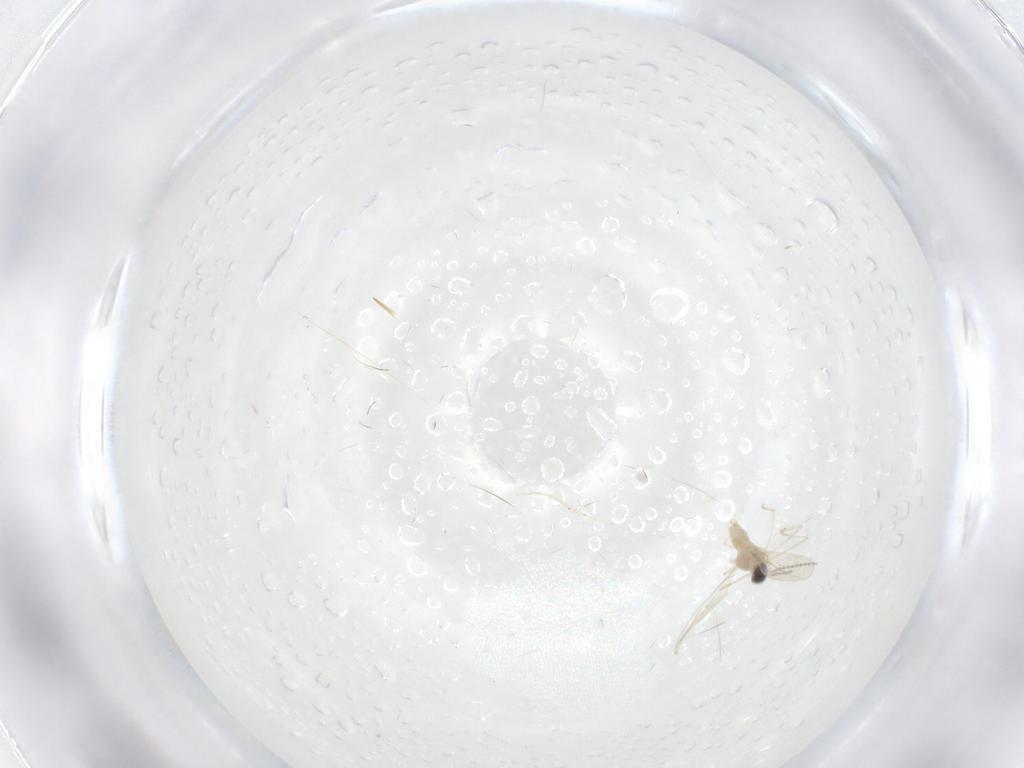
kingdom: Animalia
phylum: Arthropoda
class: Insecta
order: Diptera
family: Cecidomyiidae
